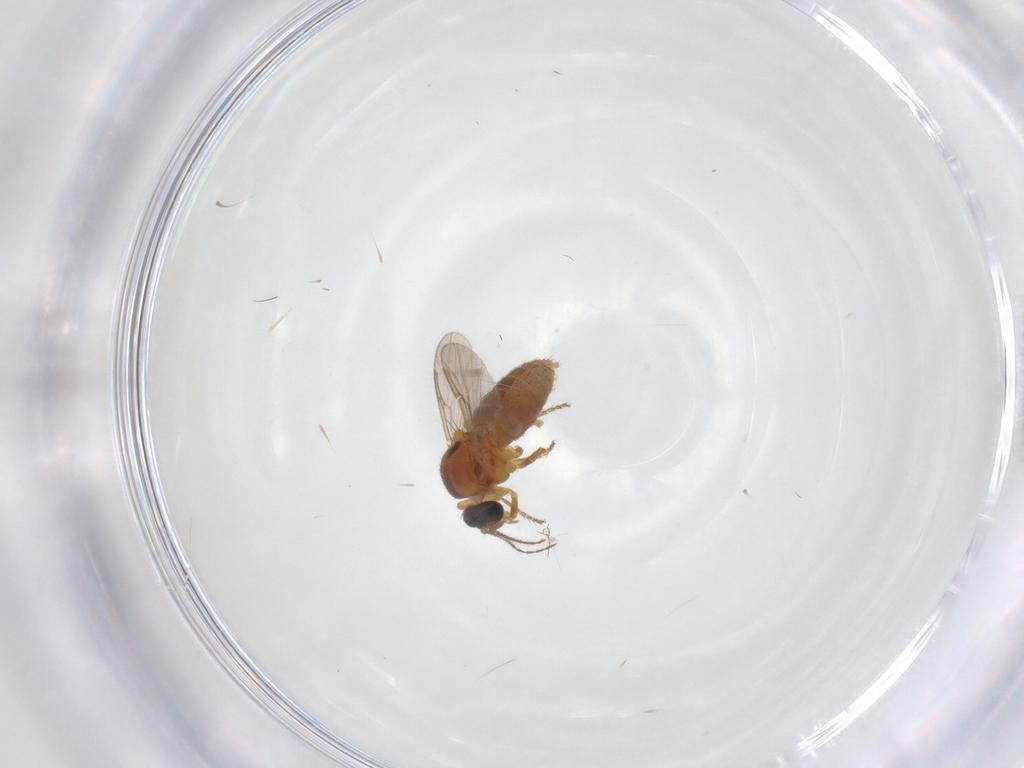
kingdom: Animalia
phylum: Arthropoda
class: Insecta
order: Diptera
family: Ceratopogonidae
